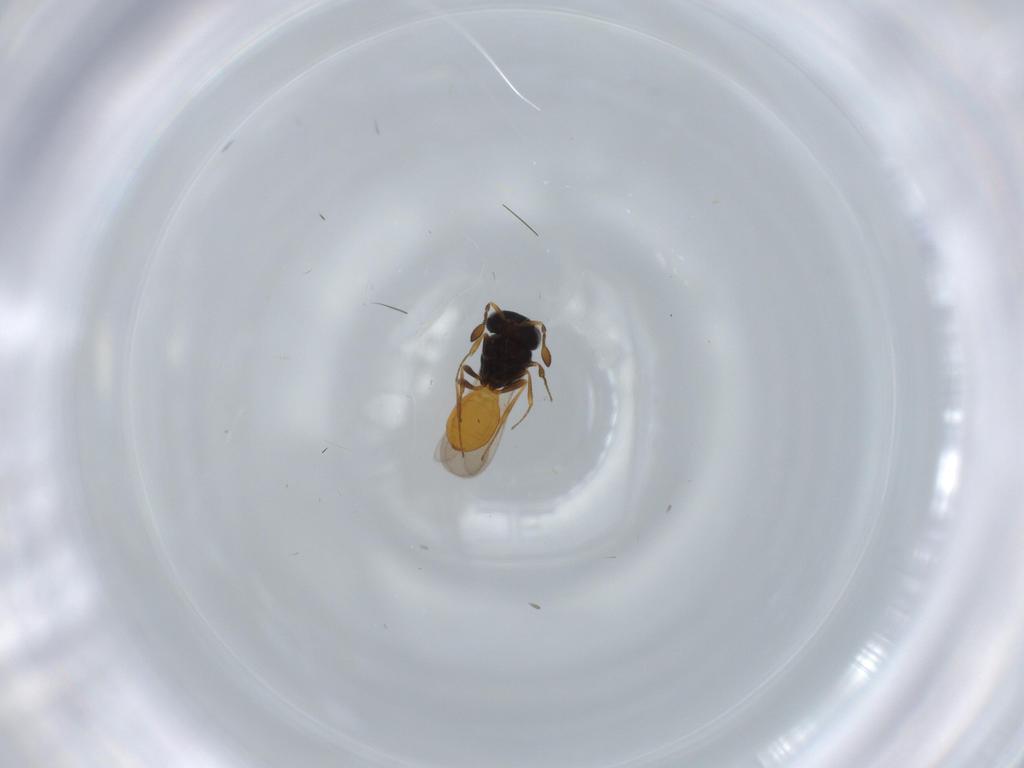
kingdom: Animalia
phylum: Arthropoda
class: Insecta
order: Hymenoptera
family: Scelionidae
